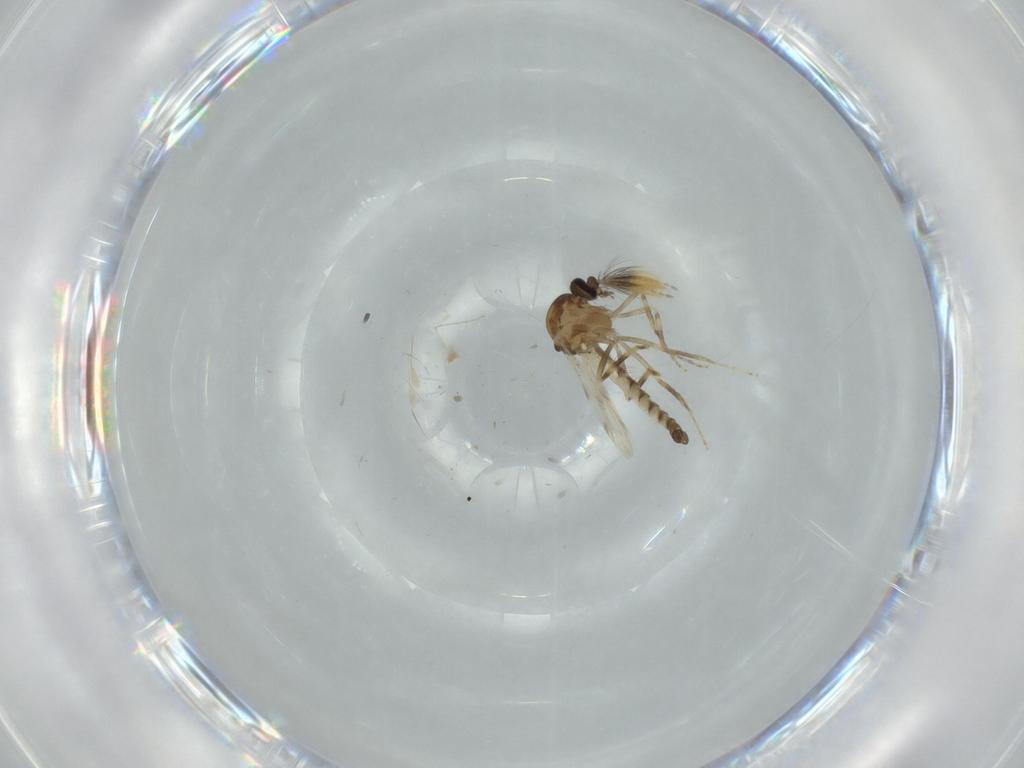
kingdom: Animalia
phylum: Arthropoda
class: Insecta
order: Diptera
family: Ceratopogonidae
